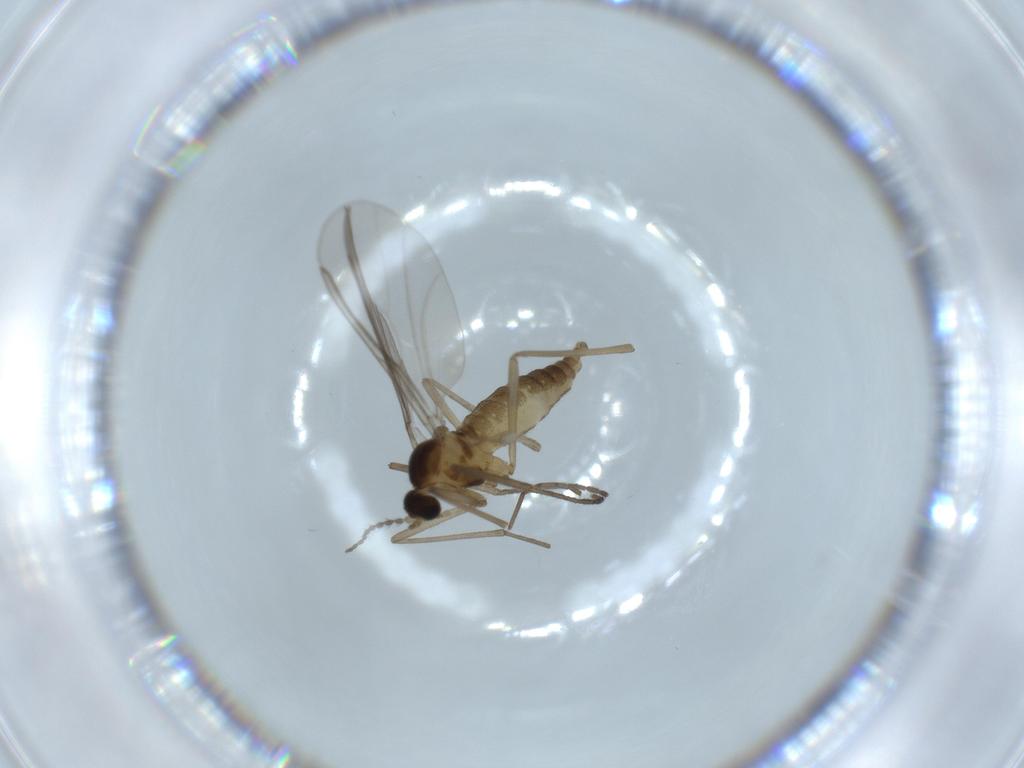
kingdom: Animalia
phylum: Arthropoda
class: Insecta
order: Diptera
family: Cecidomyiidae
